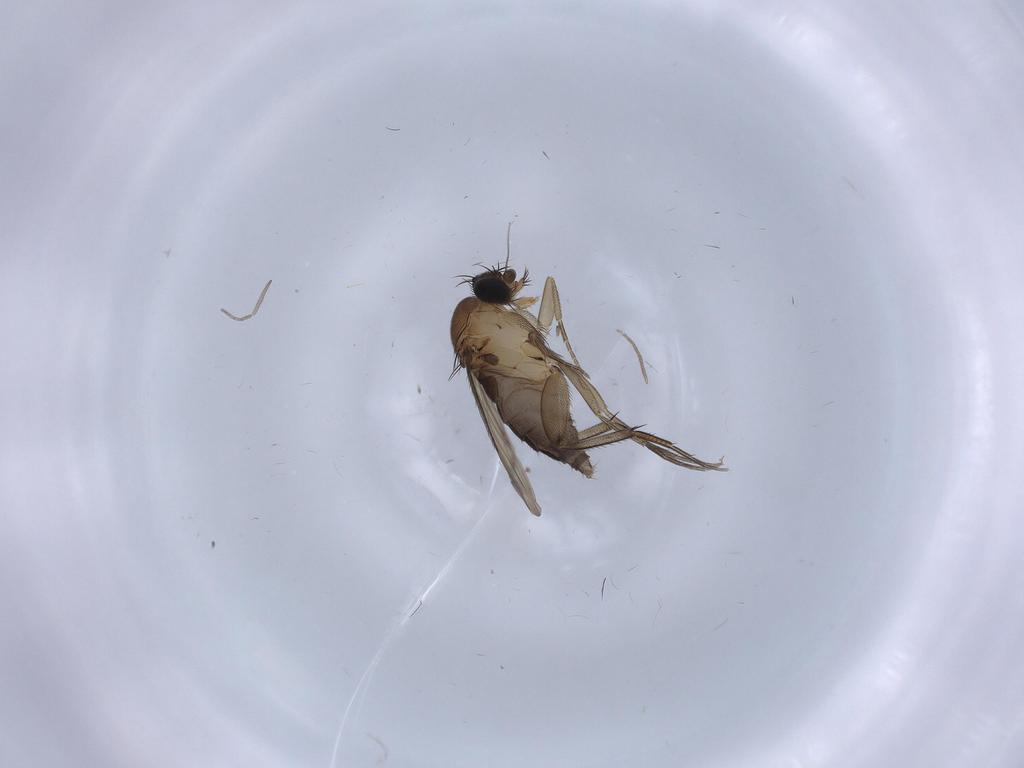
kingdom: Animalia
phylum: Arthropoda
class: Insecta
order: Diptera
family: Phoridae
